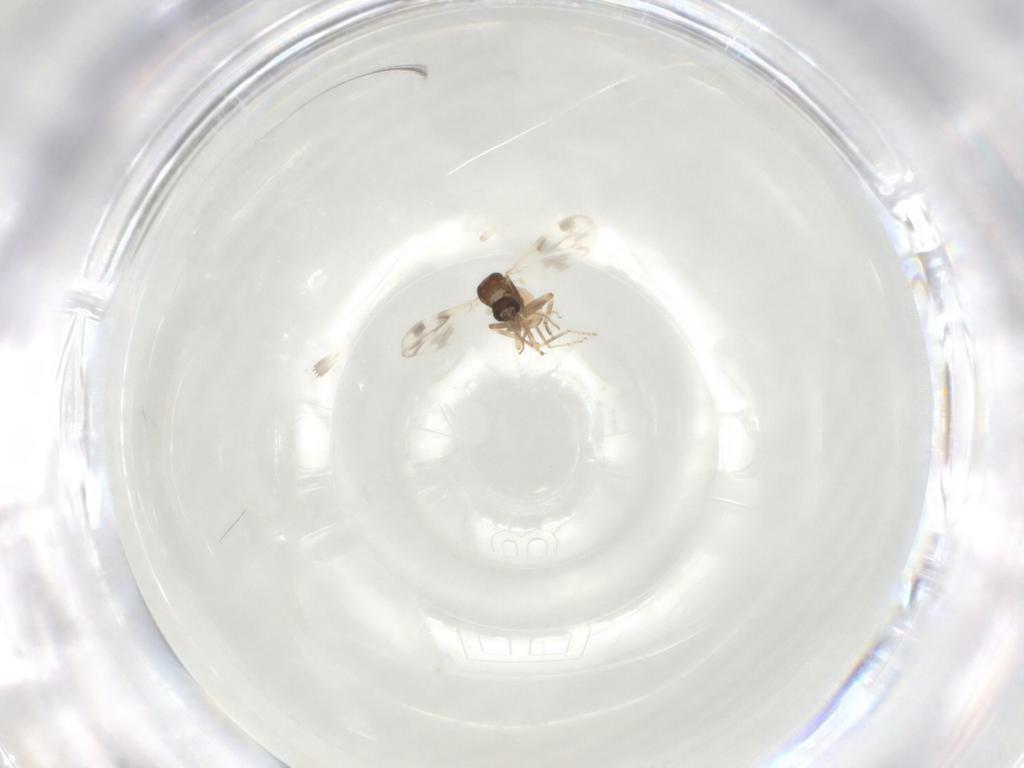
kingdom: Animalia
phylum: Arthropoda
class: Insecta
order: Diptera
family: Ceratopogonidae
